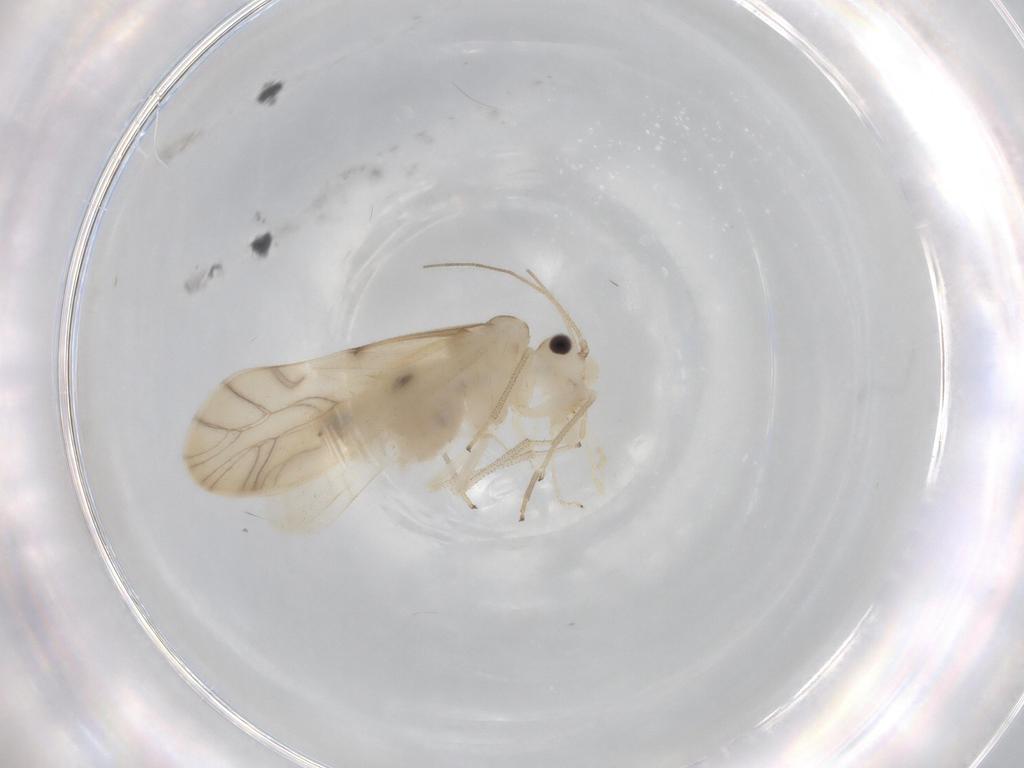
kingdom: Animalia
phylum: Arthropoda
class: Insecta
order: Psocodea
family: Caeciliusidae
